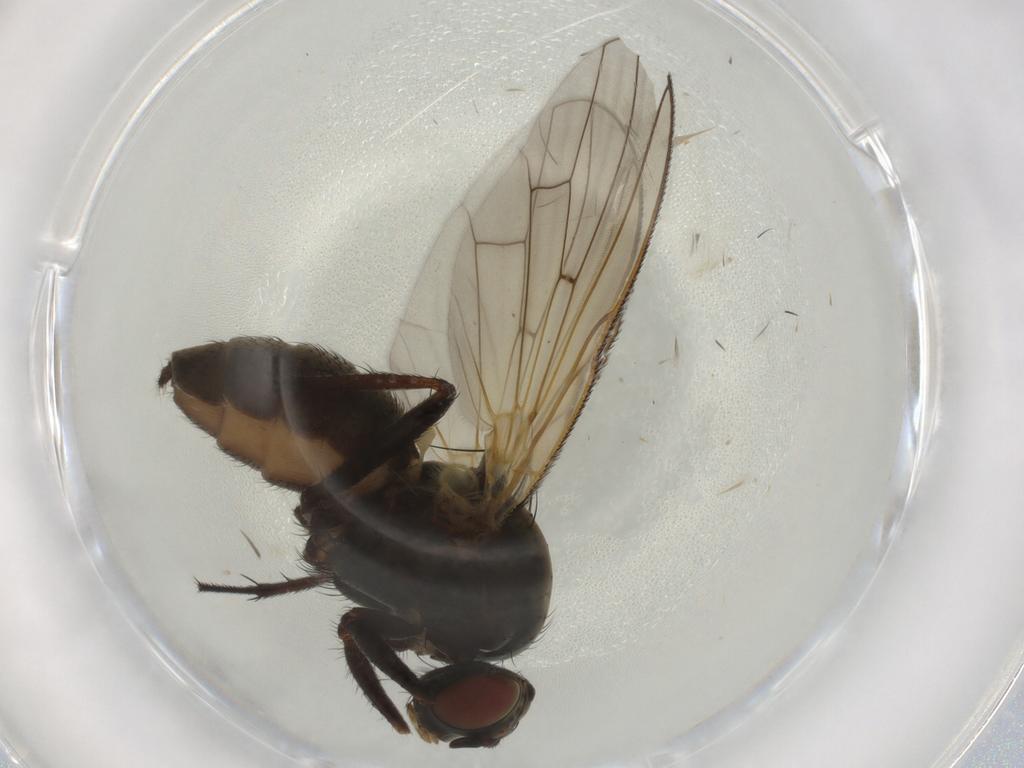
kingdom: Animalia
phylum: Arthropoda
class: Insecta
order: Diptera
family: Anthomyiidae
